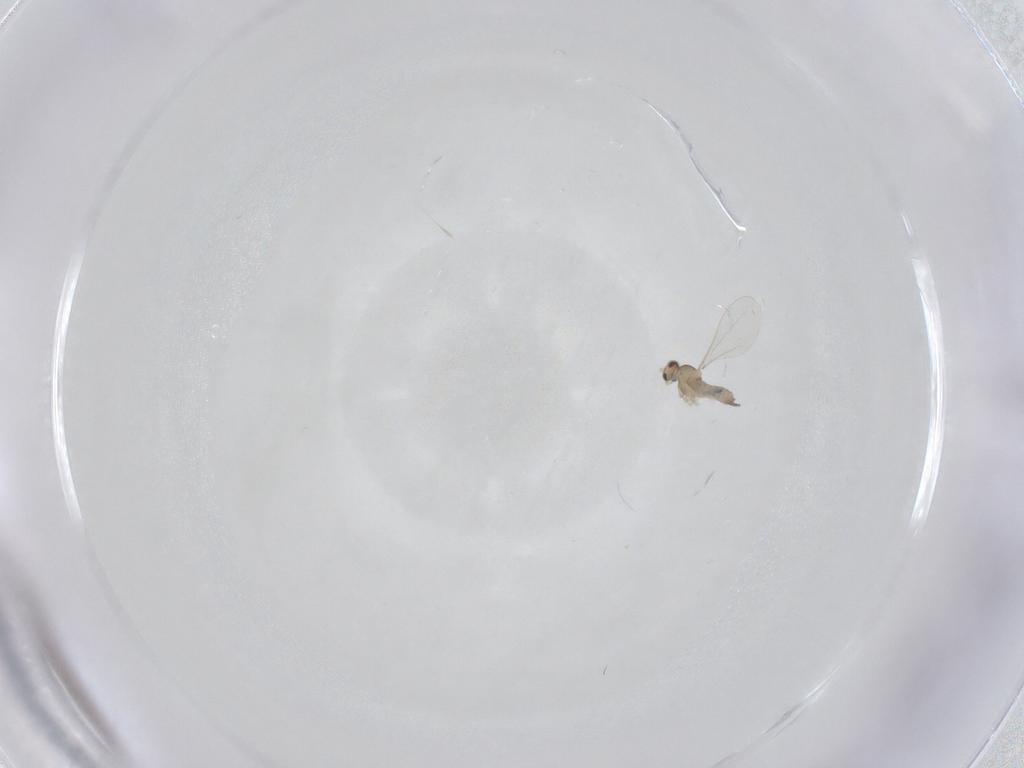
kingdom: Animalia
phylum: Arthropoda
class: Insecta
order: Diptera
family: Cecidomyiidae
